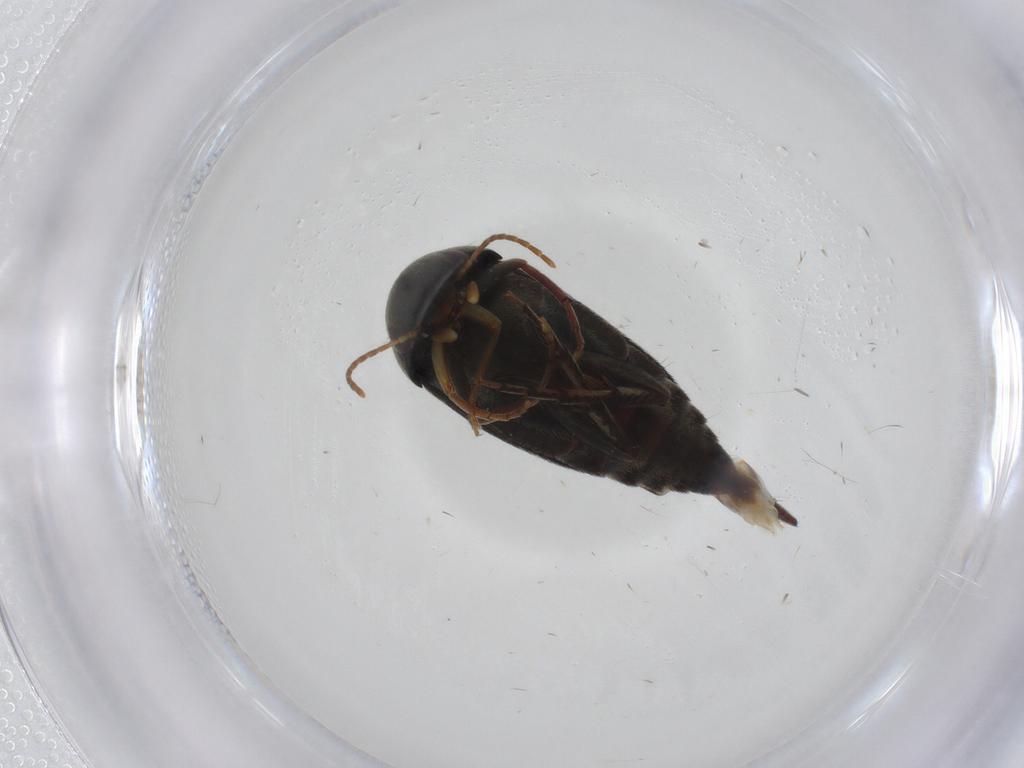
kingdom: Animalia
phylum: Arthropoda
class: Insecta
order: Coleoptera
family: Mordellidae
